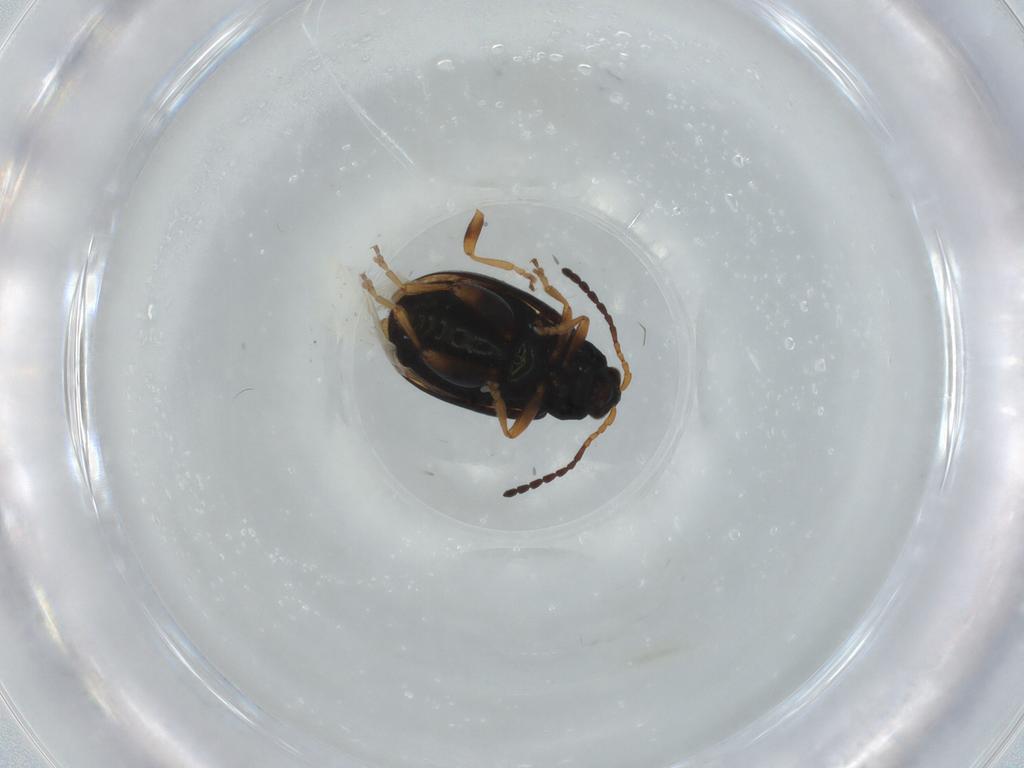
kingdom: Animalia
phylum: Arthropoda
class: Insecta
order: Coleoptera
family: Chrysomelidae
